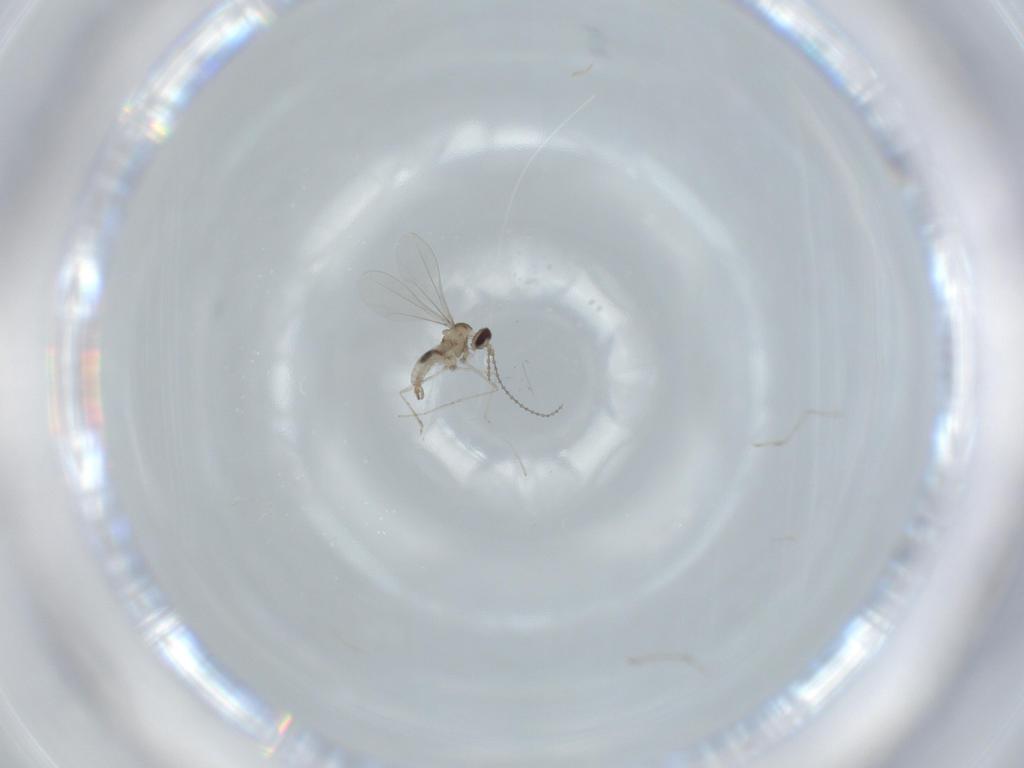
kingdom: Animalia
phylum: Arthropoda
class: Insecta
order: Diptera
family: Cecidomyiidae
